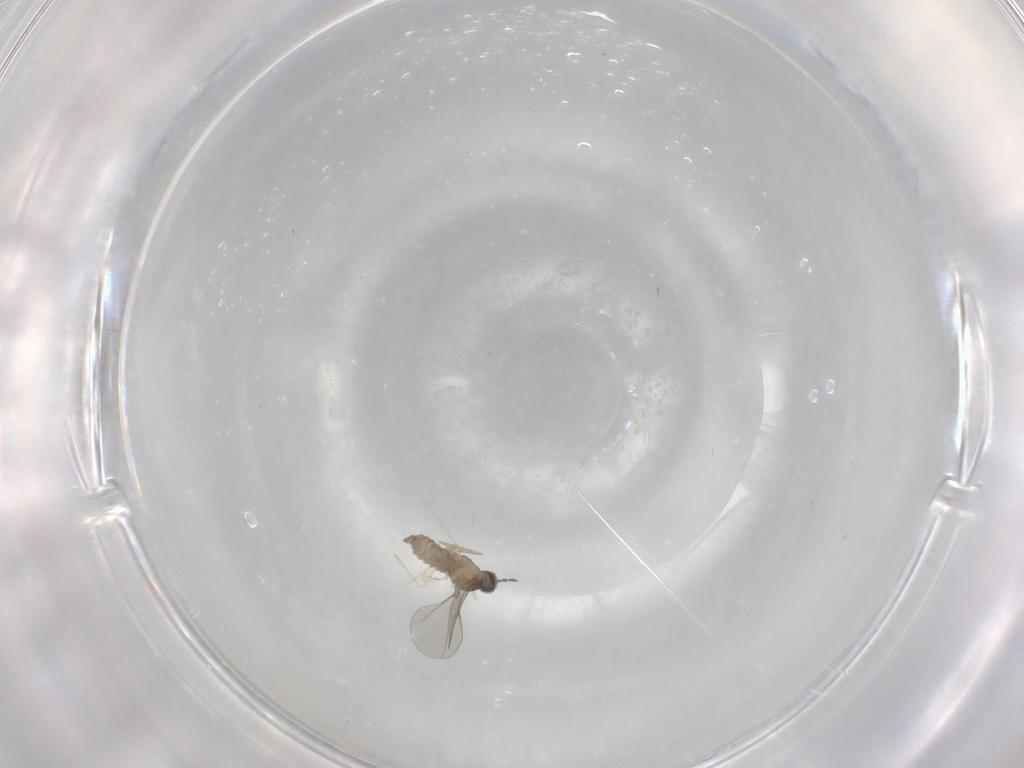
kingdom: Animalia
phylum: Arthropoda
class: Insecta
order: Diptera
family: Cecidomyiidae
